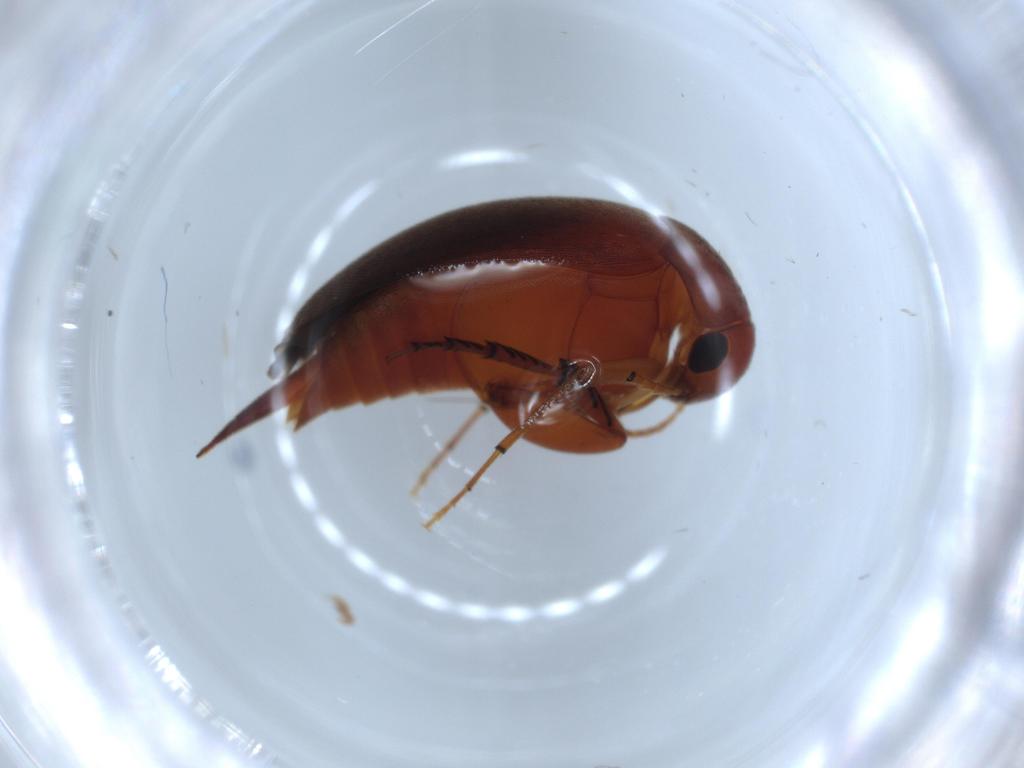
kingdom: Animalia
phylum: Arthropoda
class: Insecta
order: Coleoptera
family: Mordellidae
